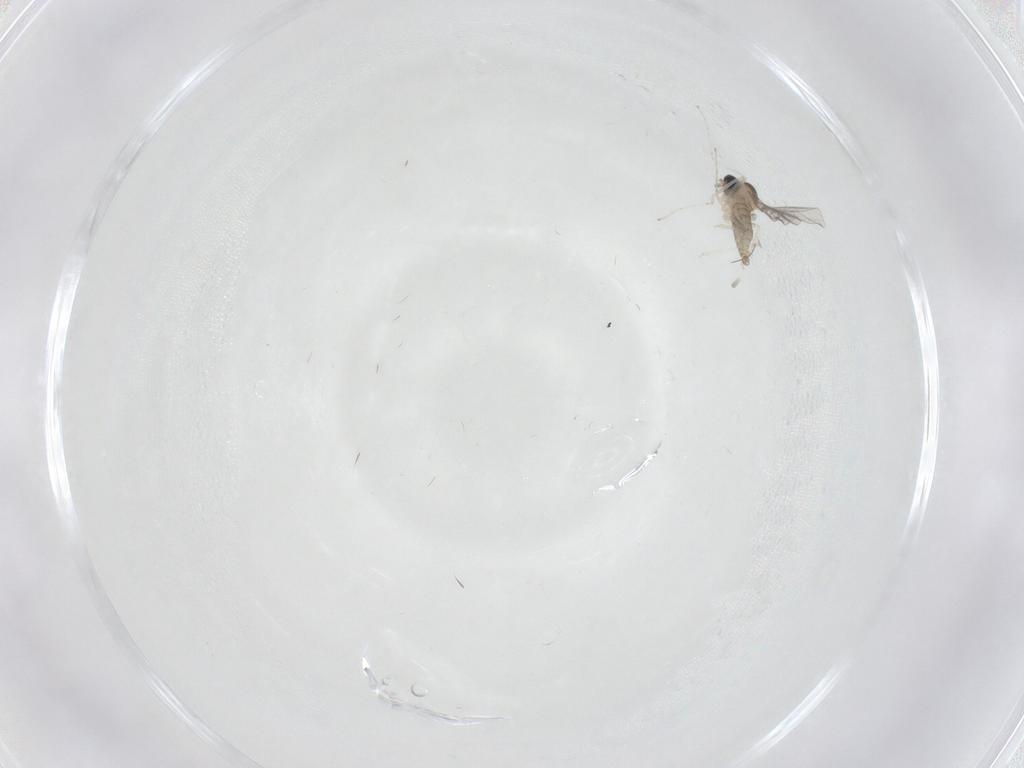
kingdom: Animalia
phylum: Arthropoda
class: Insecta
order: Diptera
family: Cecidomyiidae
